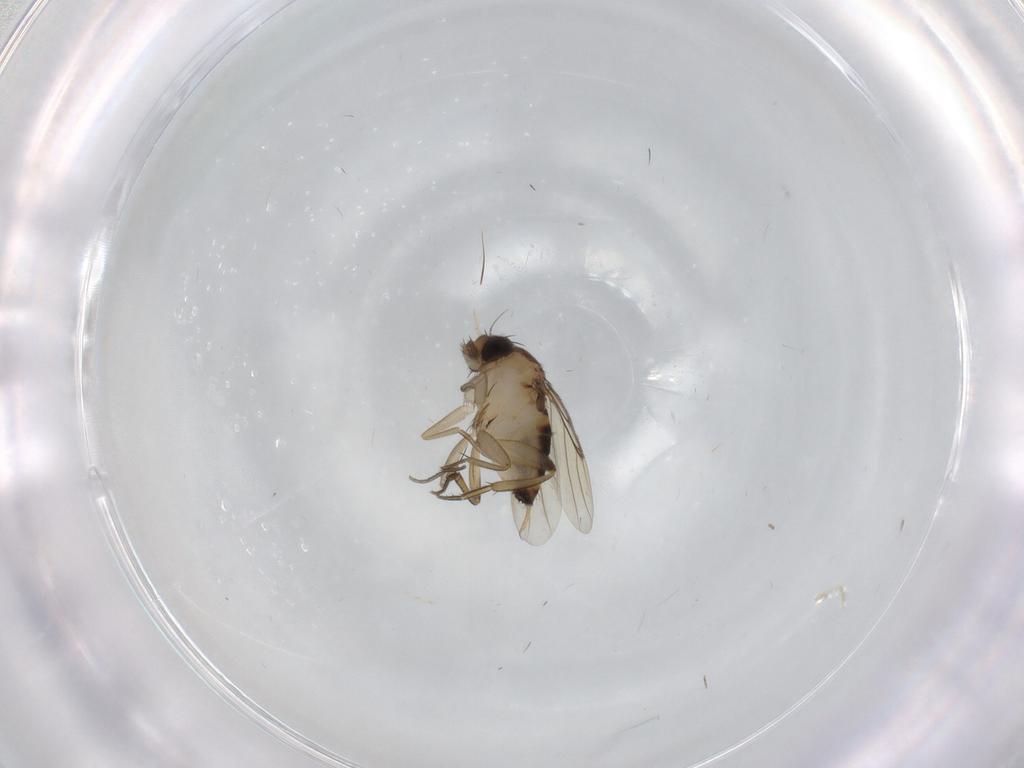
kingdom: Animalia
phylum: Arthropoda
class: Insecta
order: Diptera
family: Phoridae
